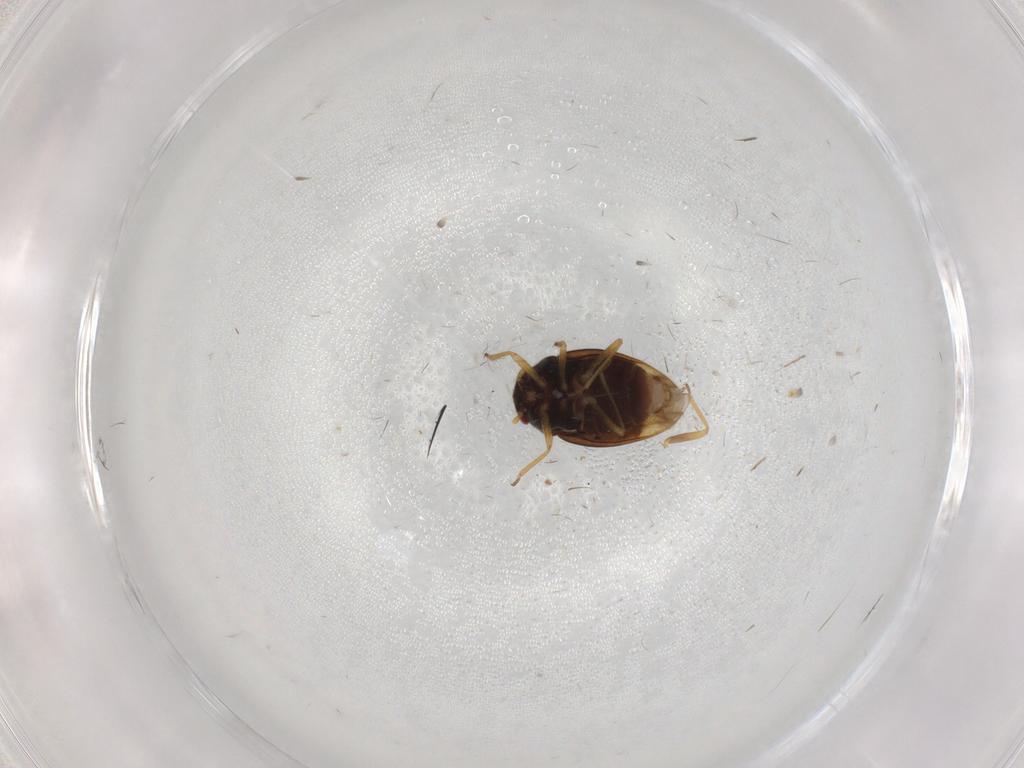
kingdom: Animalia
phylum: Arthropoda
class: Insecta
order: Hemiptera
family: Schizopteridae
